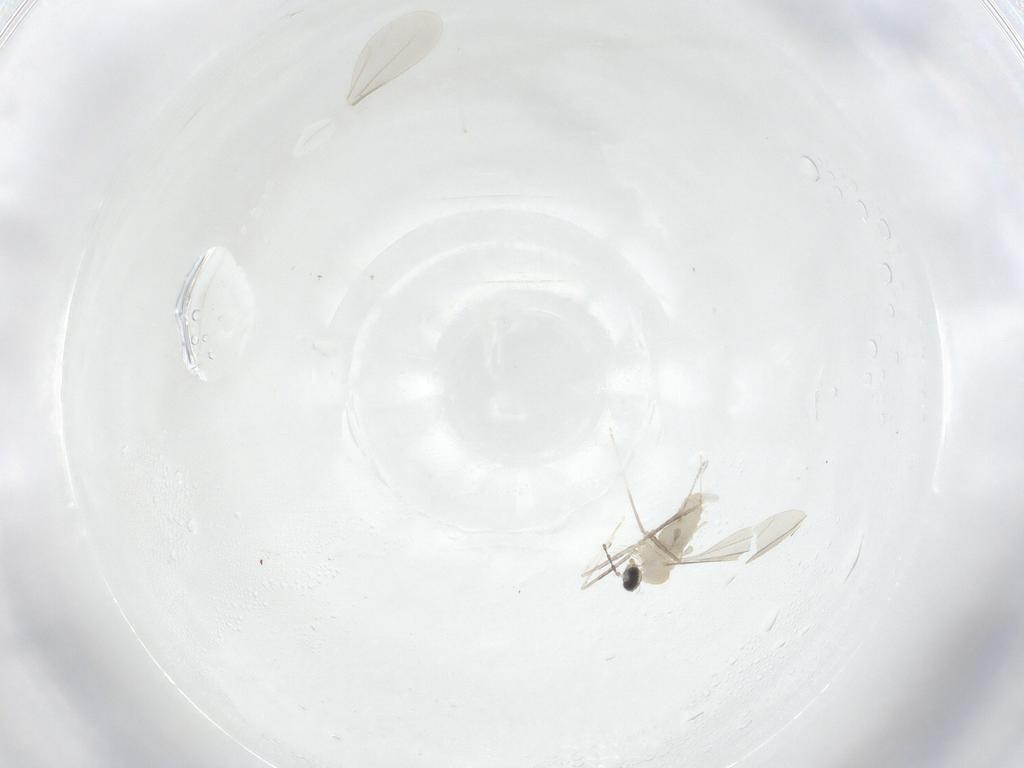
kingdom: Animalia
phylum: Arthropoda
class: Insecta
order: Diptera
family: Cecidomyiidae
